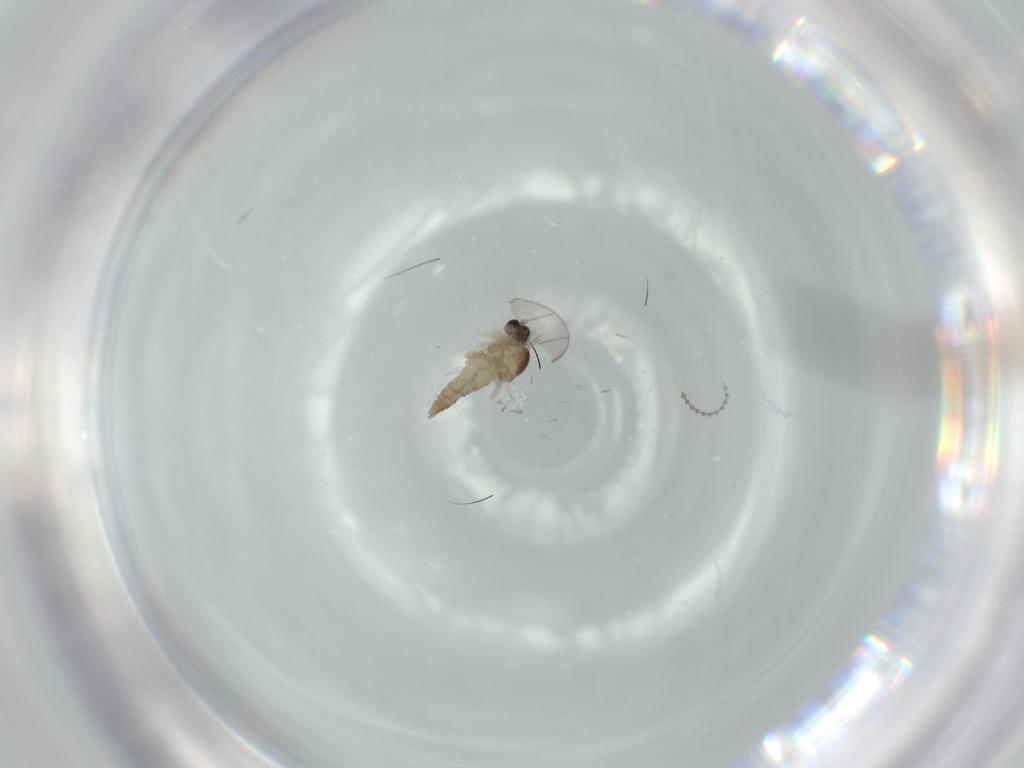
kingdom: Animalia
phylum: Arthropoda
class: Insecta
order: Diptera
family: Cecidomyiidae
